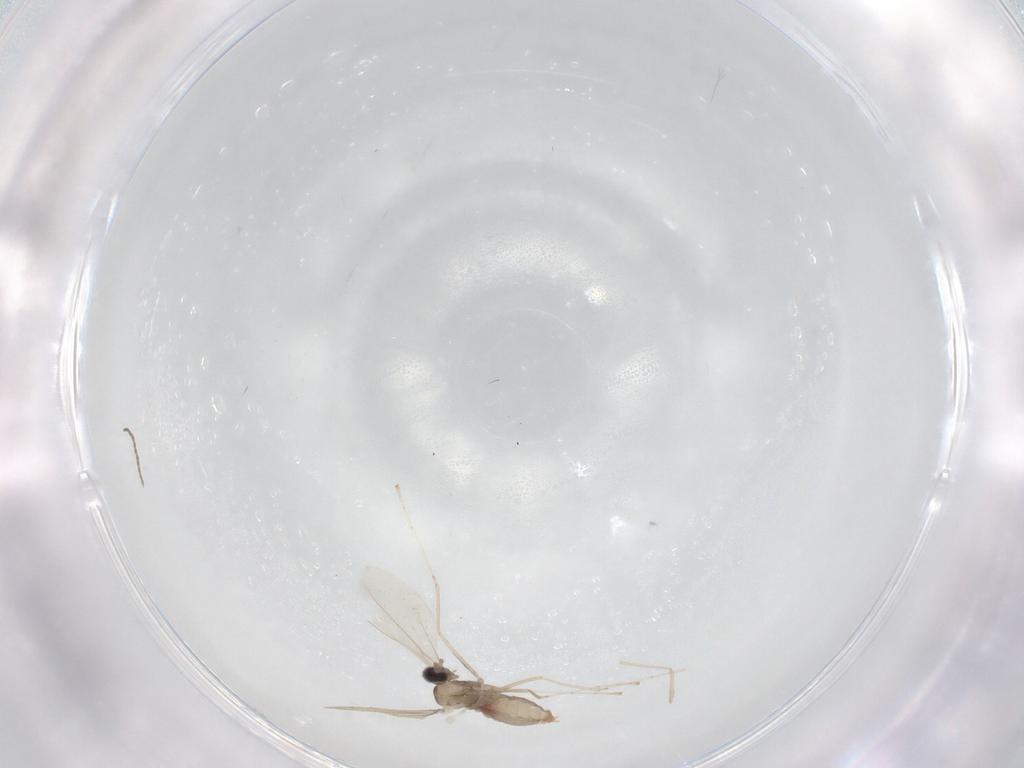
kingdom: Animalia
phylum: Arthropoda
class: Insecta
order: Diptera
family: Cecidomyiidae
